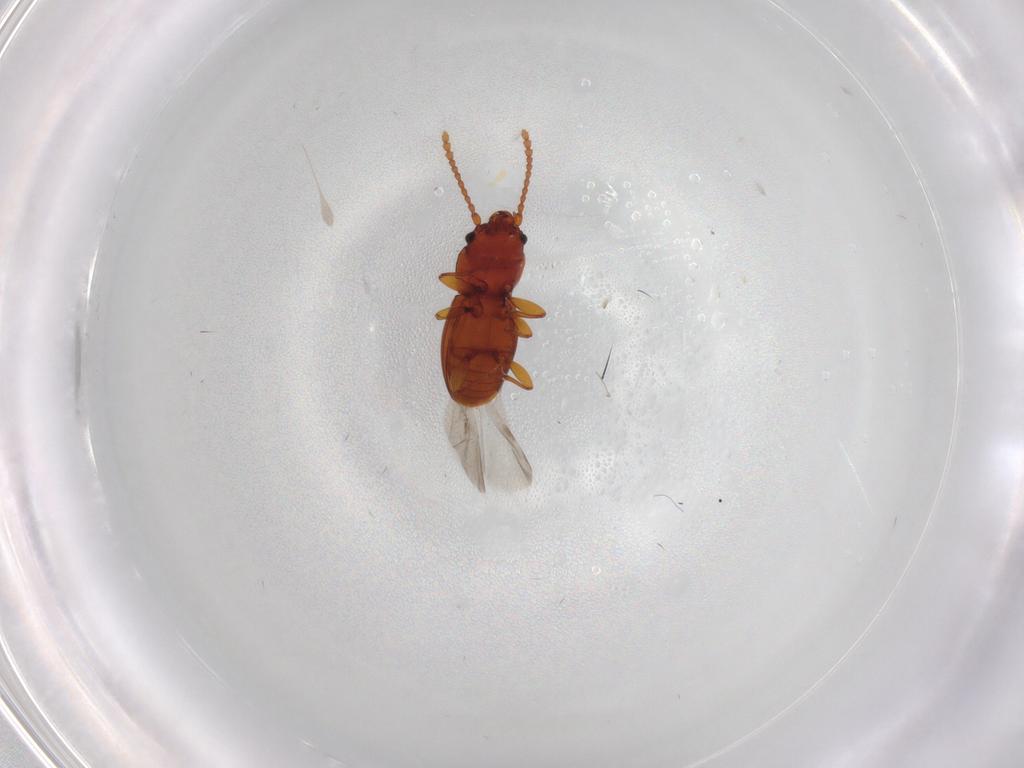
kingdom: Animalia
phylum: Arthropoda
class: Insecta
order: Coleoptera
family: Laemophloeidae
